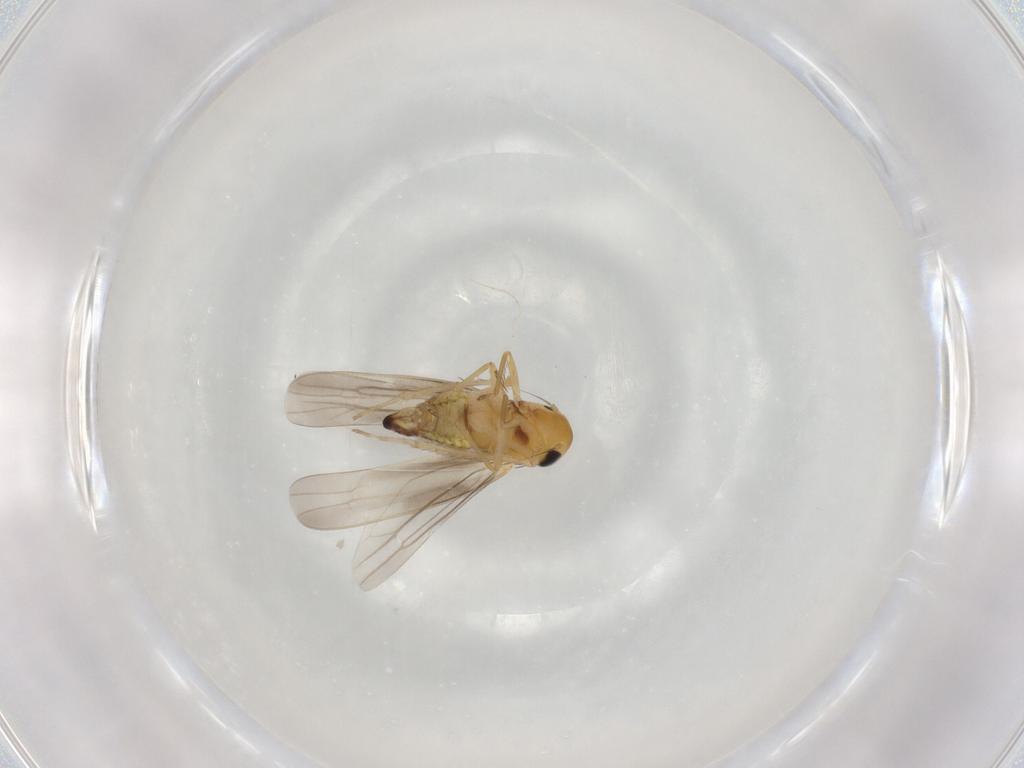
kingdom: Animalia
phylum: Arthropoda
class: Insecta
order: Hemiptera
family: Cicadellidae
